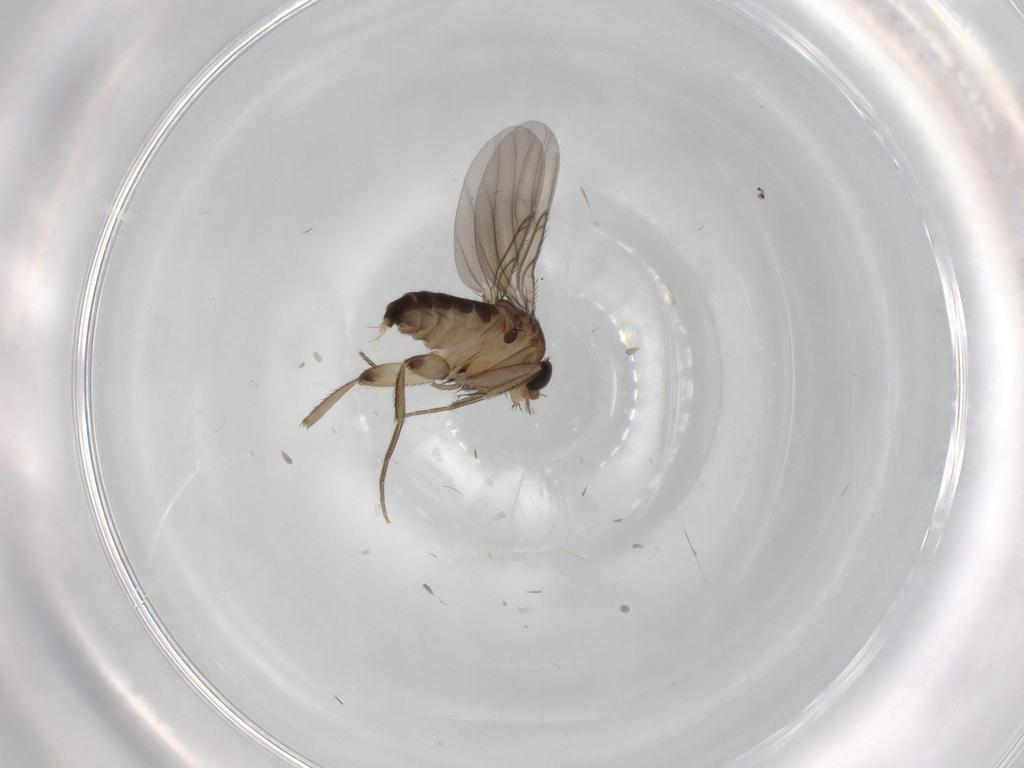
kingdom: Animalia
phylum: Arthropoda
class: Insecta
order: Diptera
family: Phoridae
